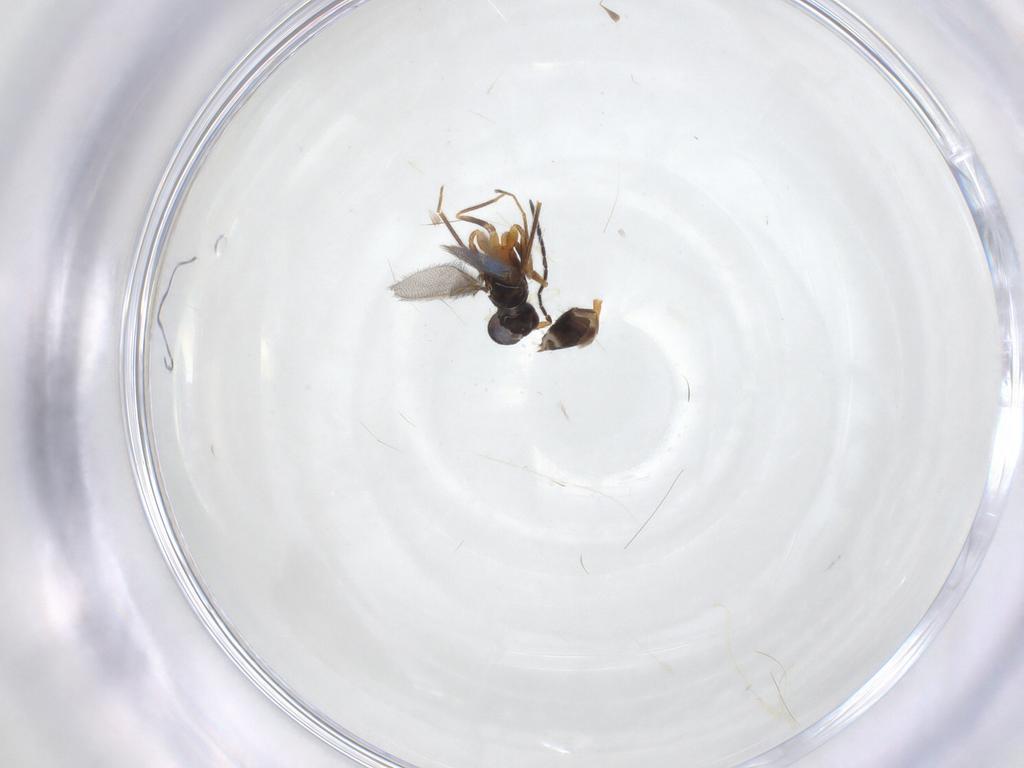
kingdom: Animalia
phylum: Arthropoda
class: Insecta
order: Hymenoptera
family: Mymaridae
